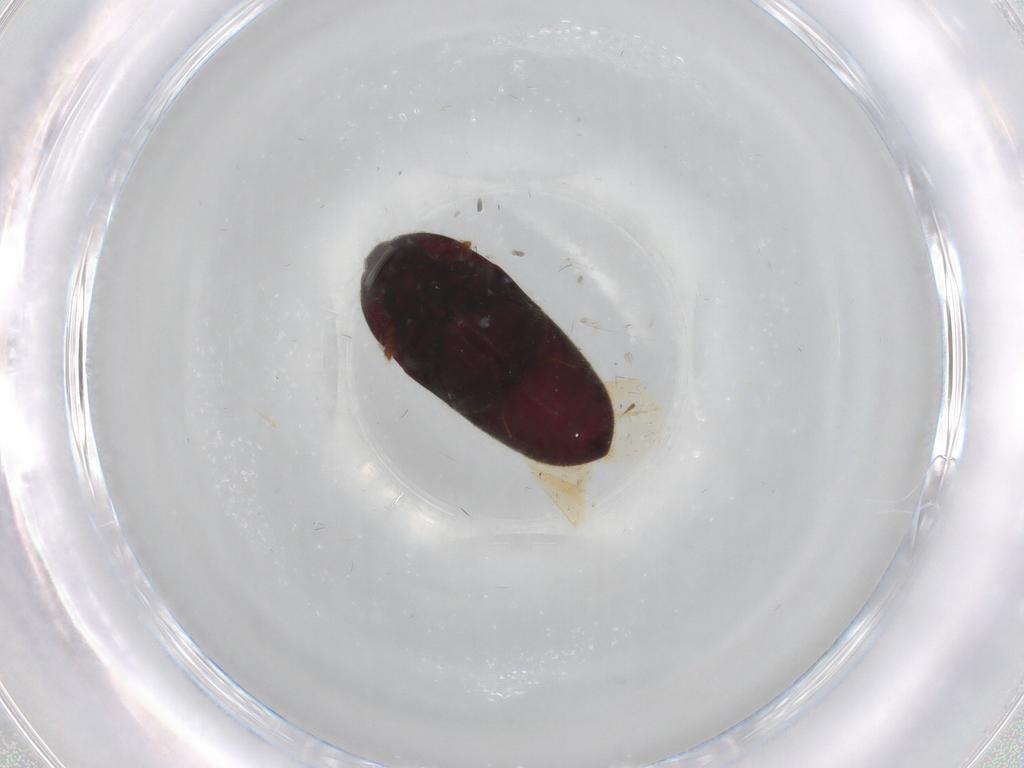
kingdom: Animalia
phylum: Arthropoda
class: Insecta
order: Coleoptera
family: Throscidae
